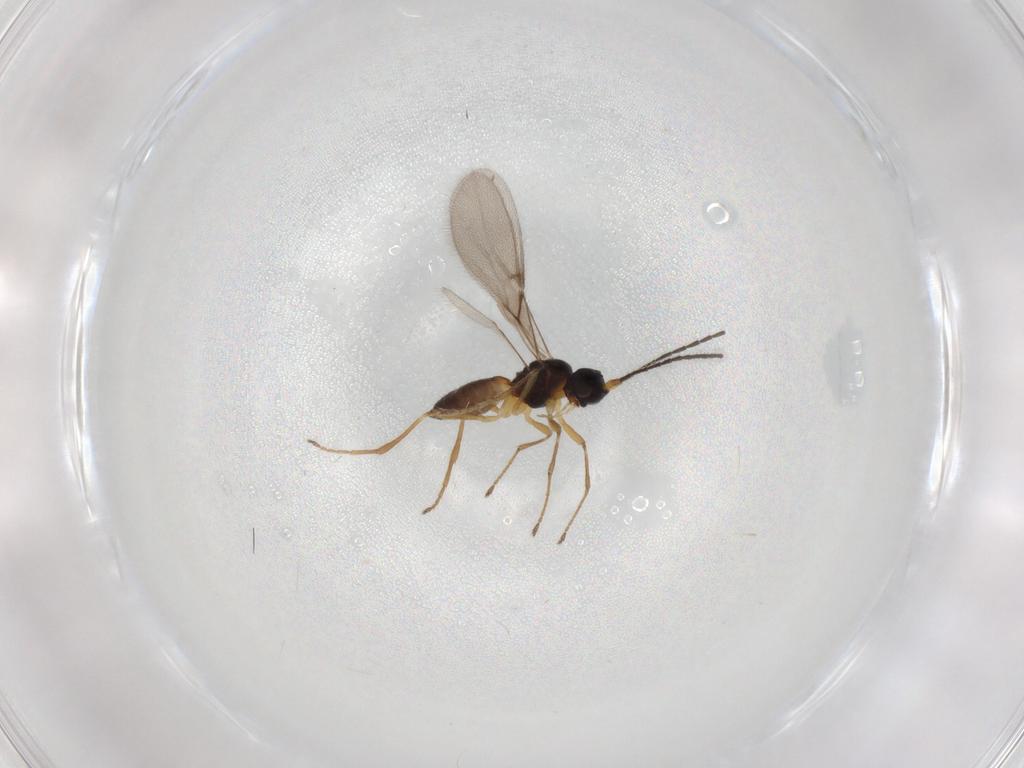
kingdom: Animalia
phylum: Arthropoda
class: Insecta
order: Hymenoptera
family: Braconidae
